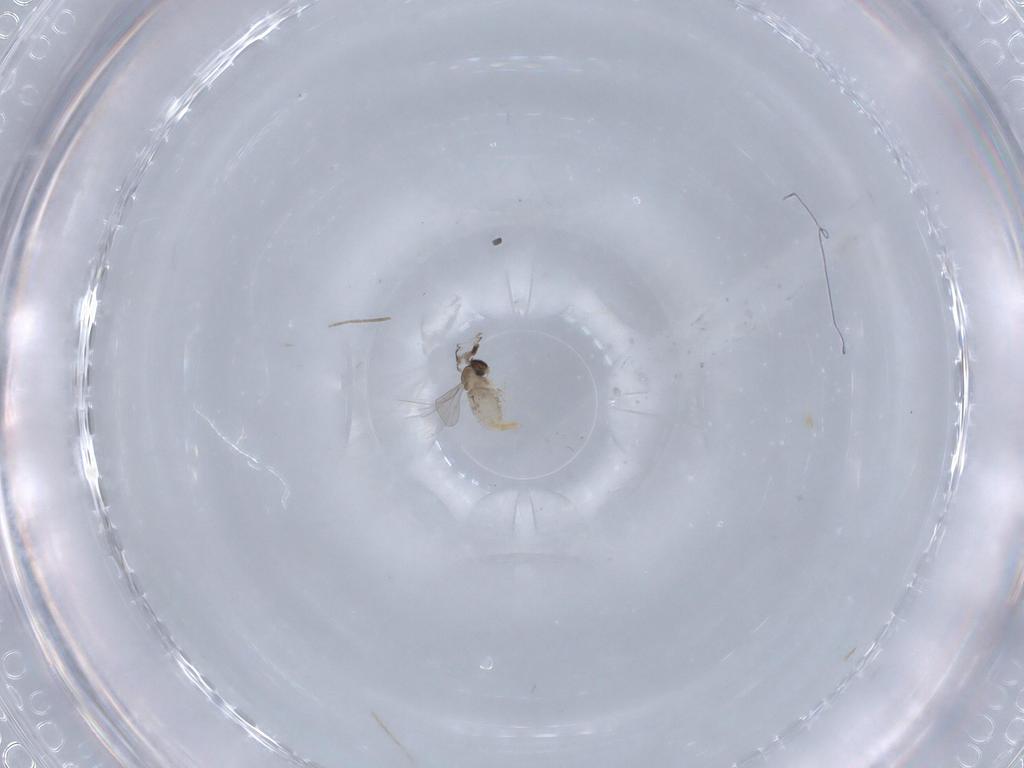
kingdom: Animalia
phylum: Arthropoda
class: Insecta
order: Diptera
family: Cecidomyiidae
